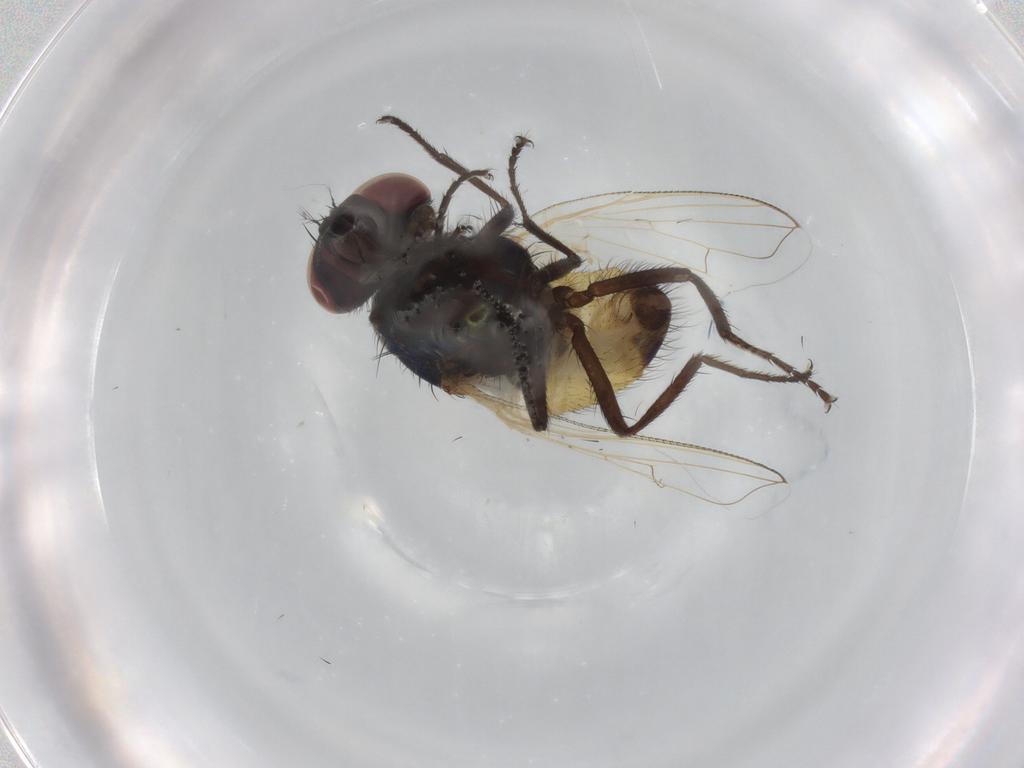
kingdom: Animalia
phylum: Arthropoda
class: Insecta
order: Diptera
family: Muscidae
